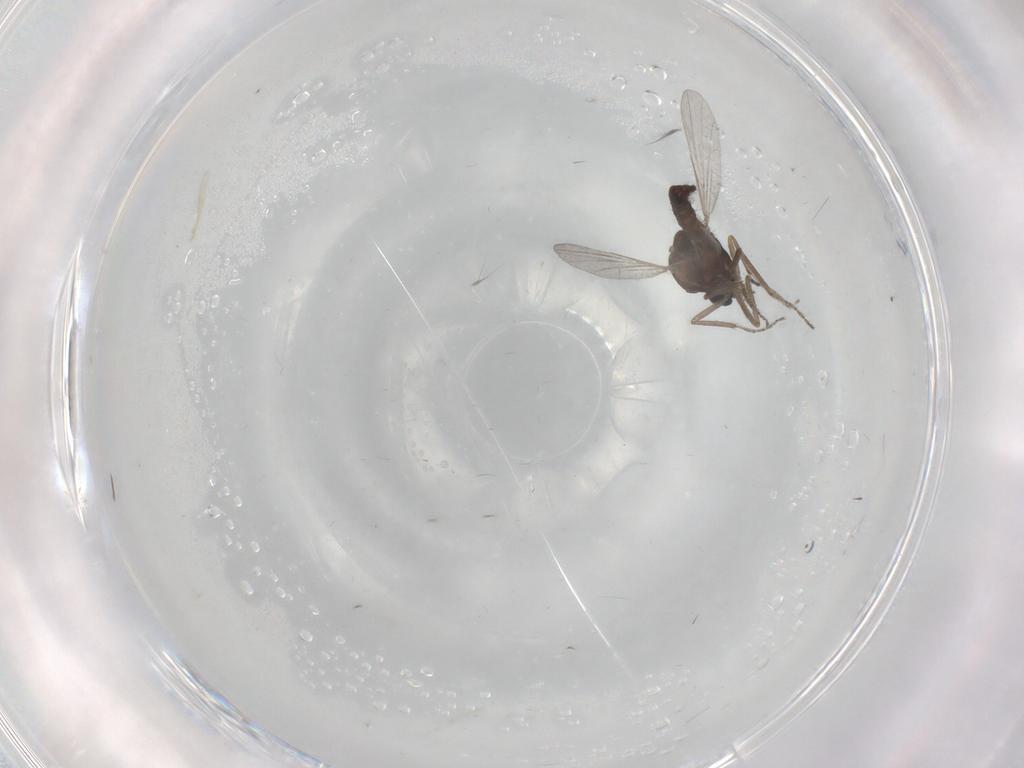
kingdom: Animalia
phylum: Arthropoda
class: Insecta
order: Diptera
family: Ceratopogonidae
